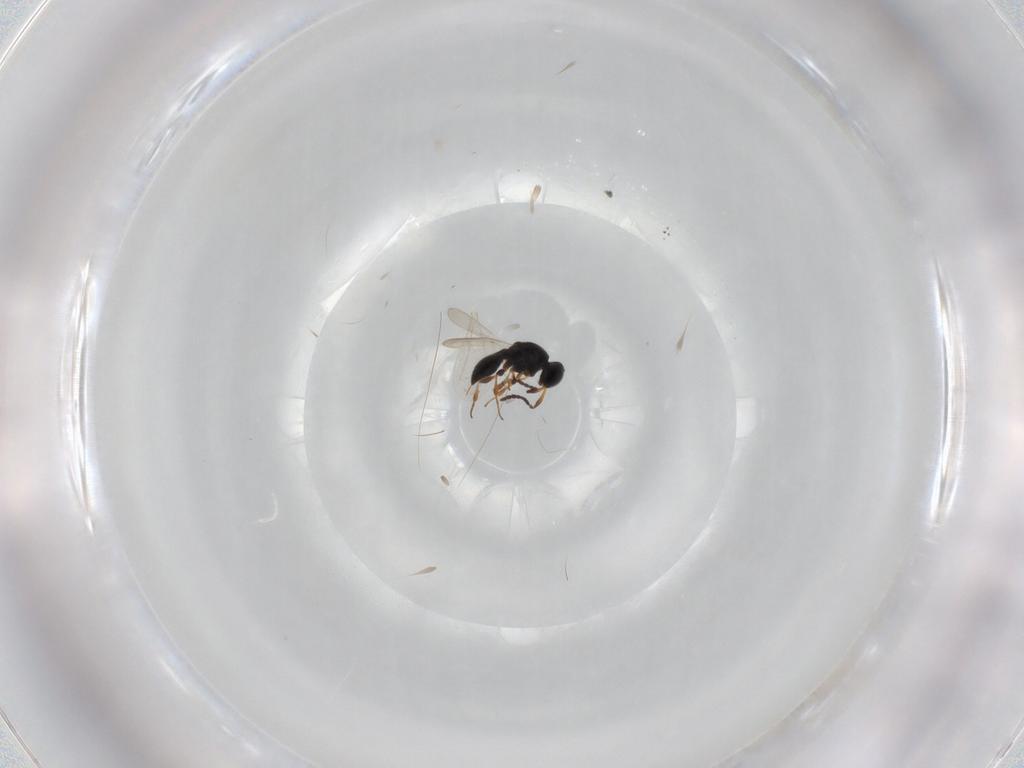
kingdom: Animalia
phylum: Arthropoda
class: Insecta
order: Hymenoptera
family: Platygastridae
